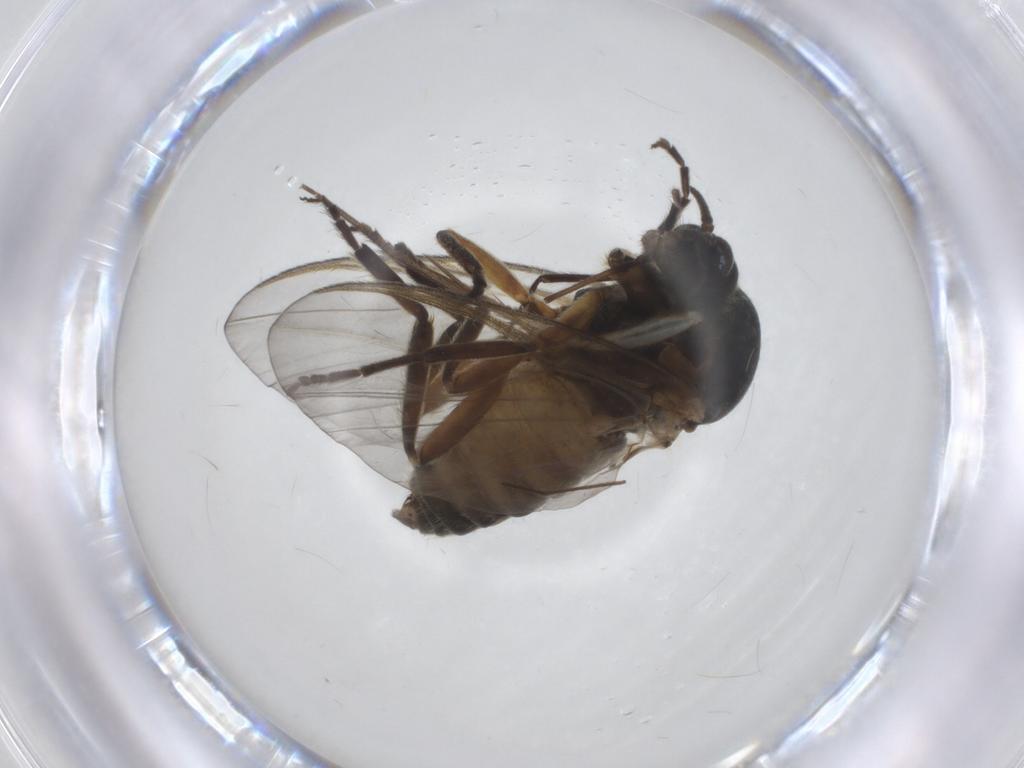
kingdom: Animalia
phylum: Arthropoda
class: Insecta
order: Diptera
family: Simuliidae
